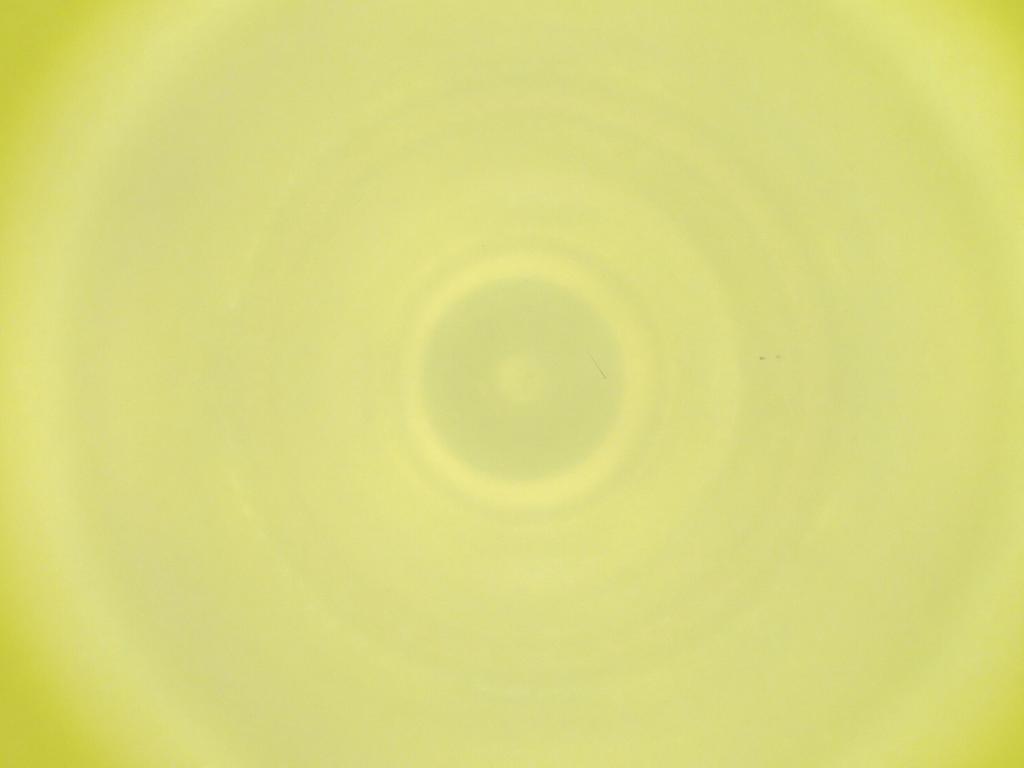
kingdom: Animalia
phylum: Arthropoda
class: Insecta
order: Diptera
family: Cecidomyiidae
